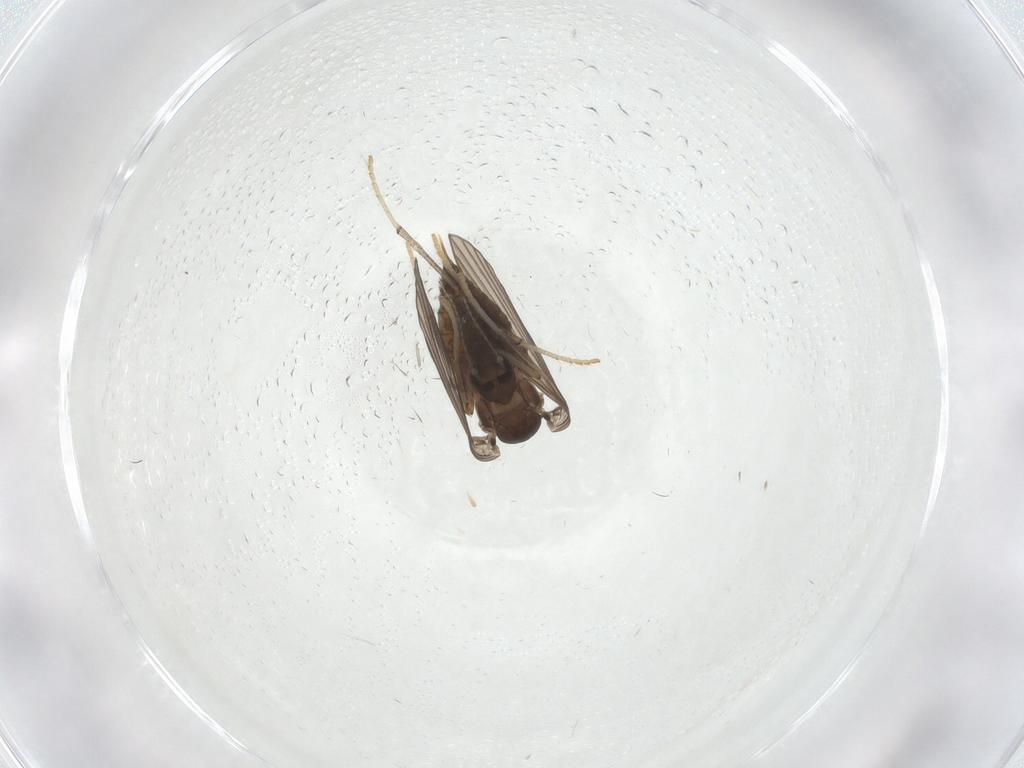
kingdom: Animalia
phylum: Arthropoda
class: Insecta
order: Diptera
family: Psychodidae
